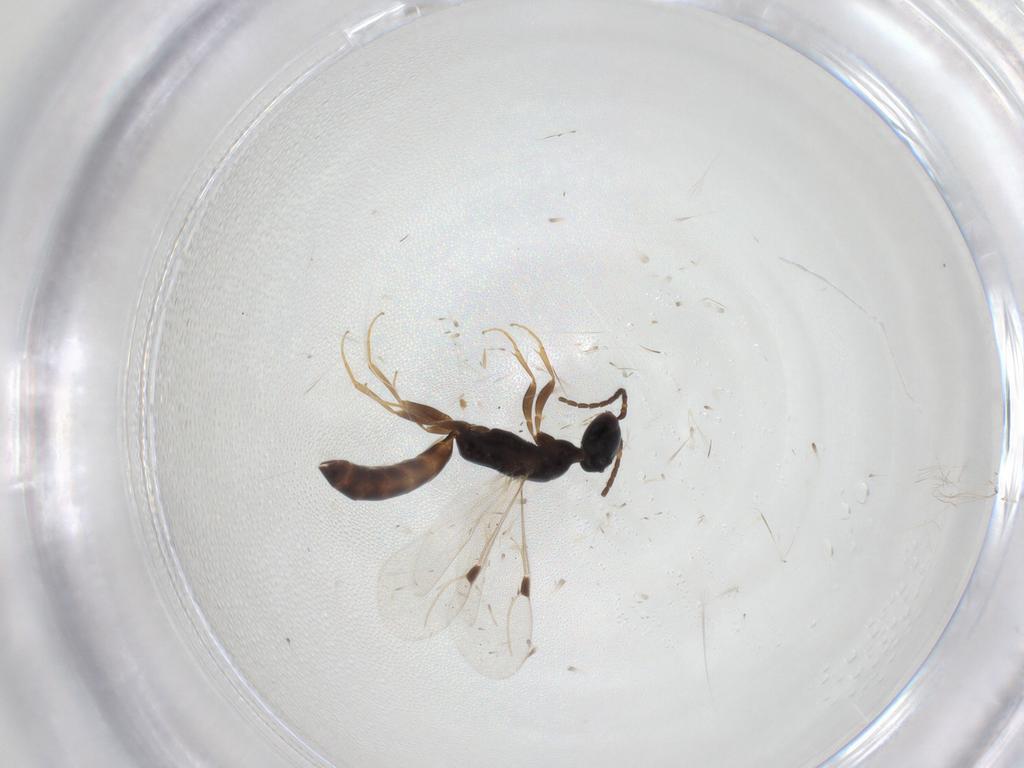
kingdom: Animalia
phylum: Arthropoda
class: Insecta
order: Hymenoptera
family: Bethylidae
